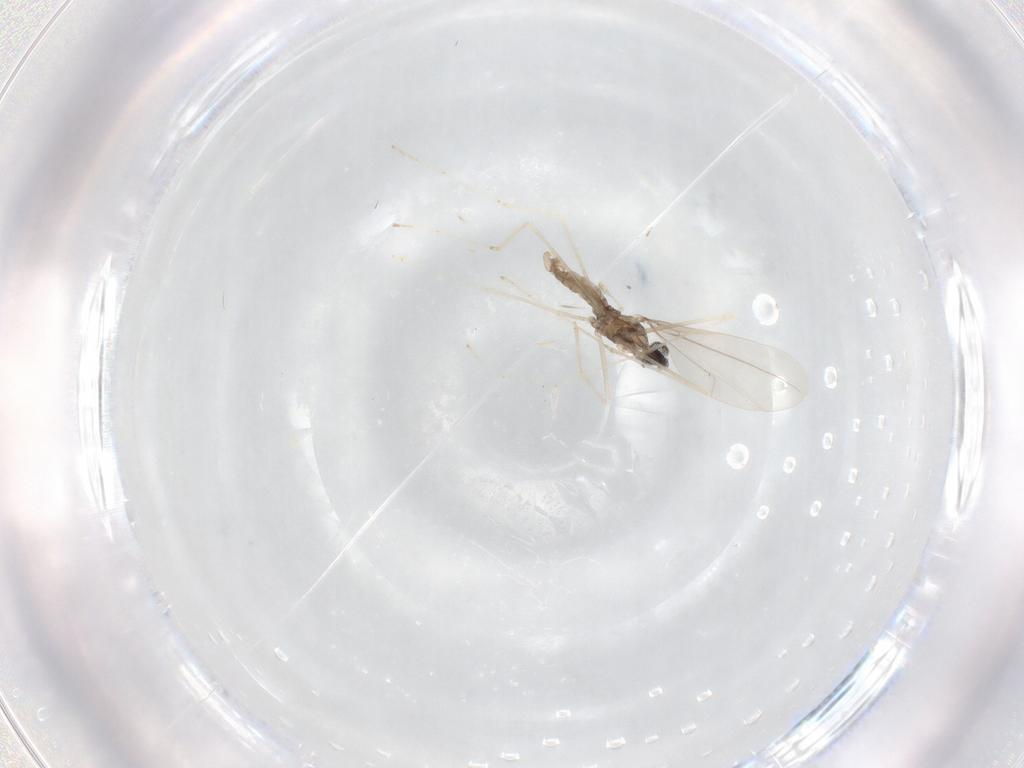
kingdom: Animalia
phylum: Arthropoda
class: Insecta
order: Diptera
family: Cecidomyiidae
